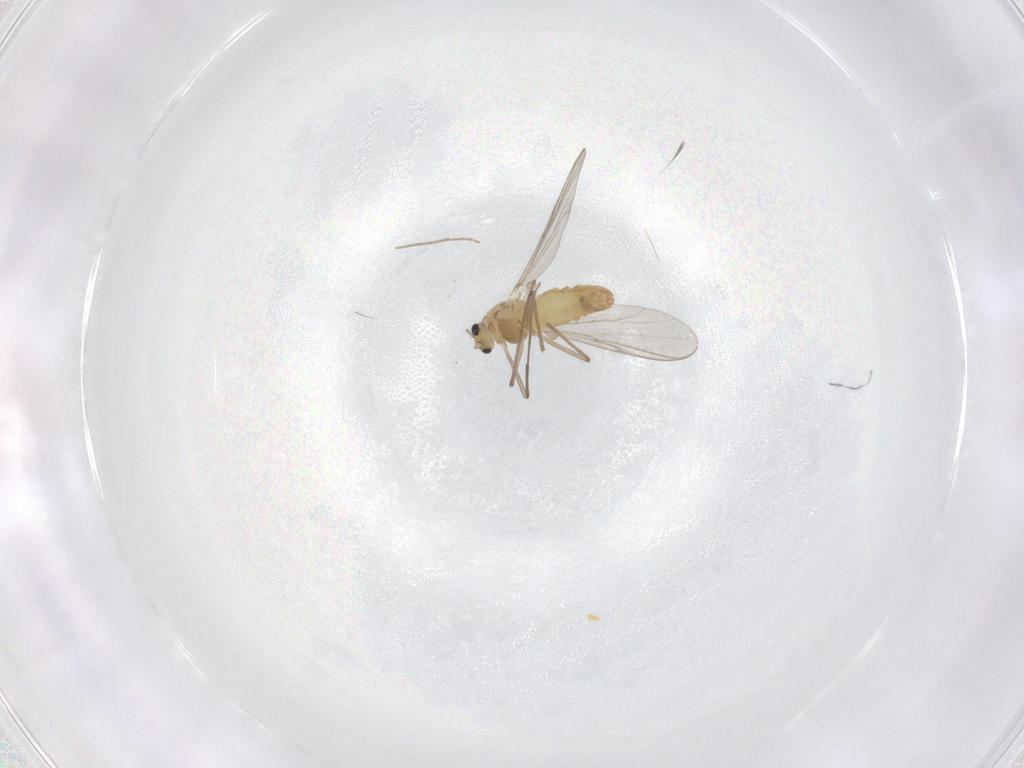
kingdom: Animalia
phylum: Arthropoda
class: Insecta
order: Diptera
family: Chironomidae
